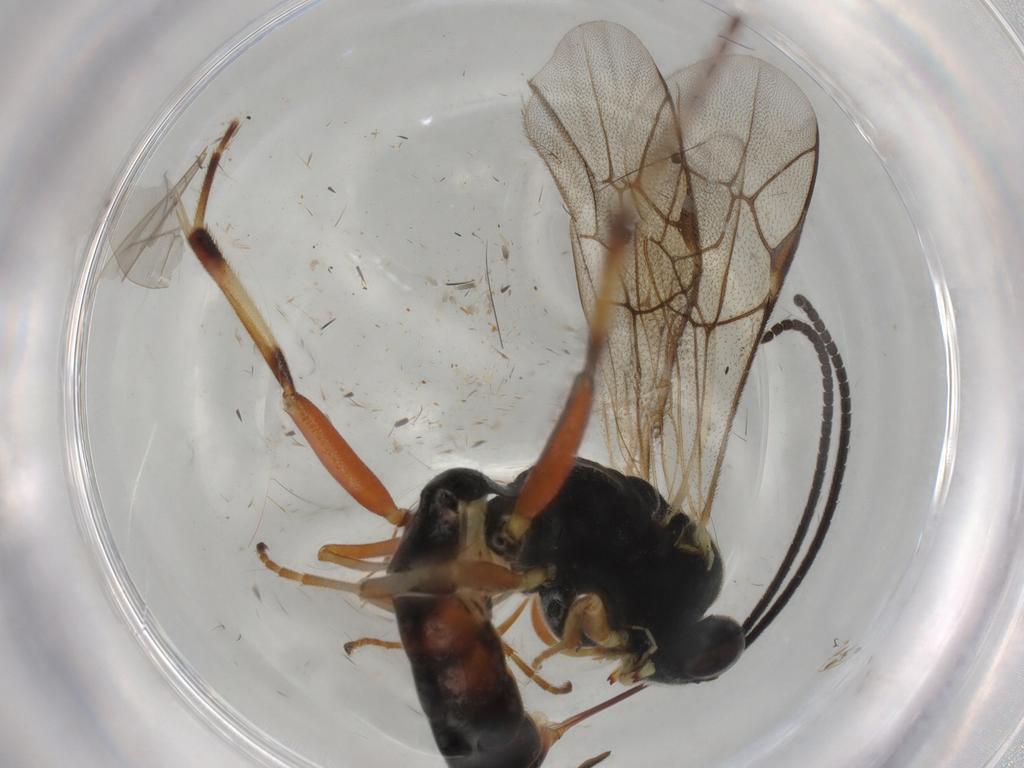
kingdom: Animalia
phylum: Arthropoda
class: Insecta
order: Hymenoptera
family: Ichneumonidae
